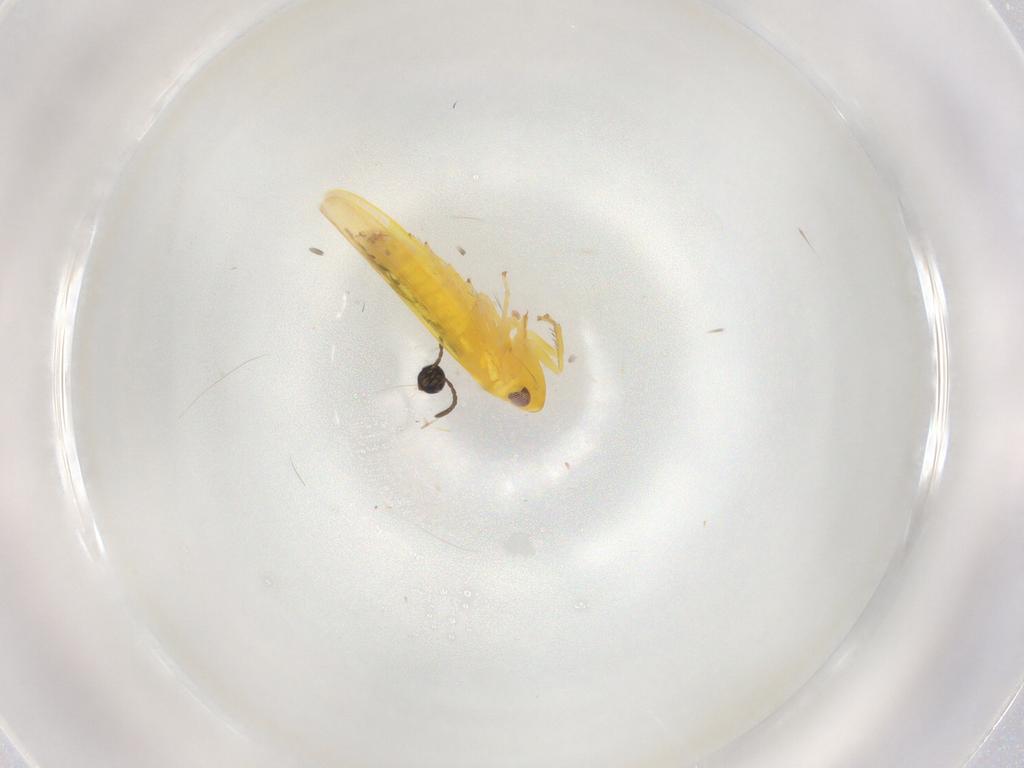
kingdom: Animalia
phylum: Arthropoda
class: Insecta
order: Hemiptera
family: Cicadellidae
